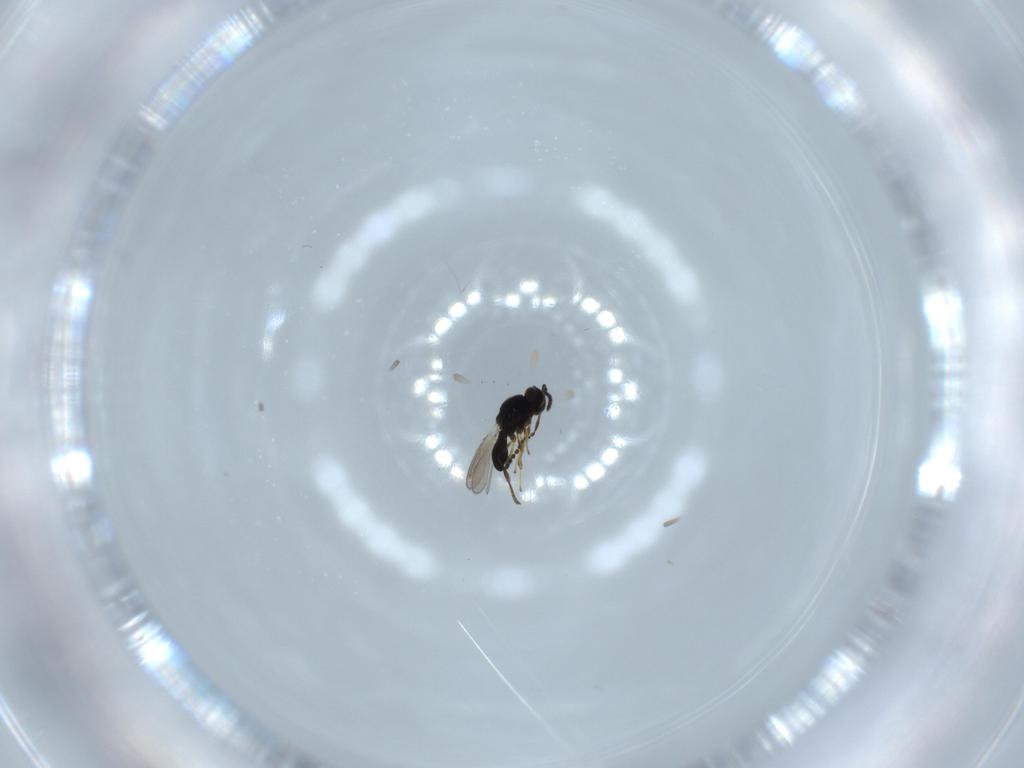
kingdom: Animalia
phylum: Arthropoda
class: Insecta
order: Hymenoptera
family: Platygastridae
